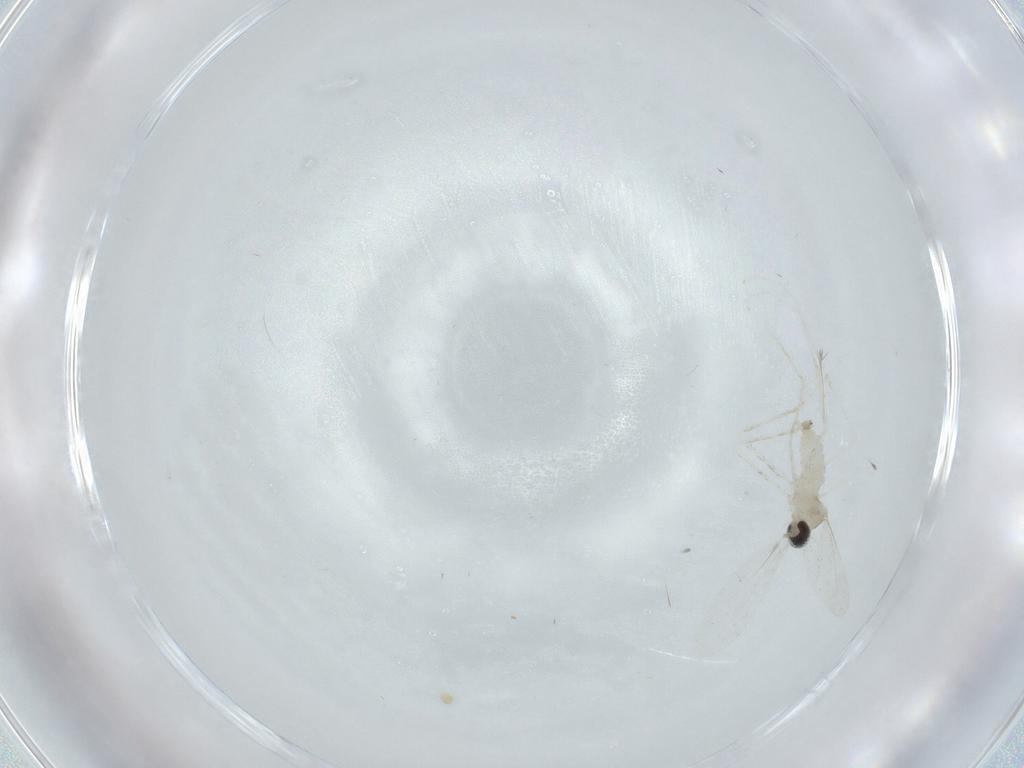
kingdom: Animalia
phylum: Arthropoda
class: Insecta
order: Diptera
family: Cecidomyiidae
